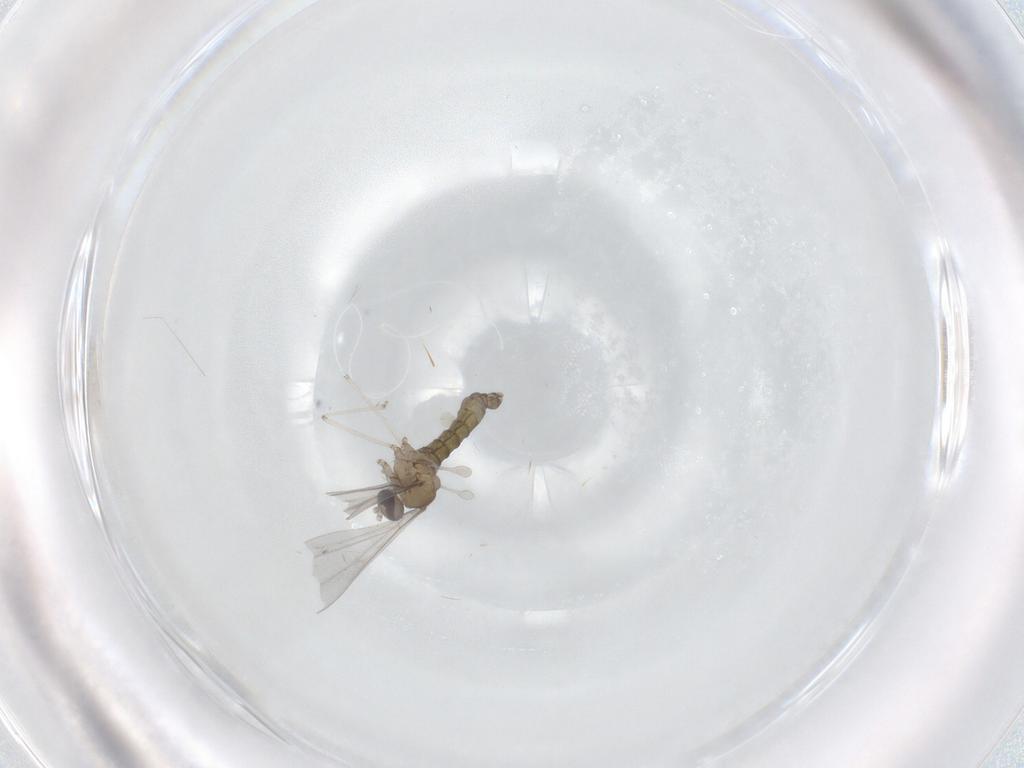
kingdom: Animalia
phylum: Arthropoda
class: Insecta
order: Diptera
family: Cecidomyiidae
